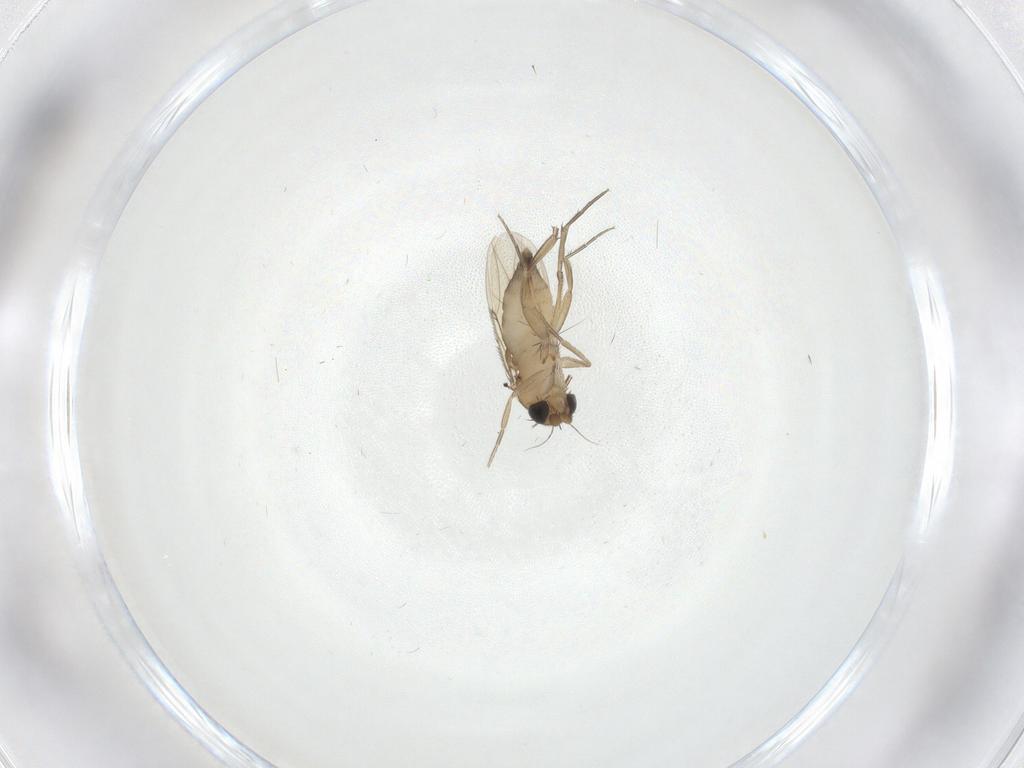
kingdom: Animalia
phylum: Arthropoda
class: Insecta
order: Diptera
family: Phoridae
